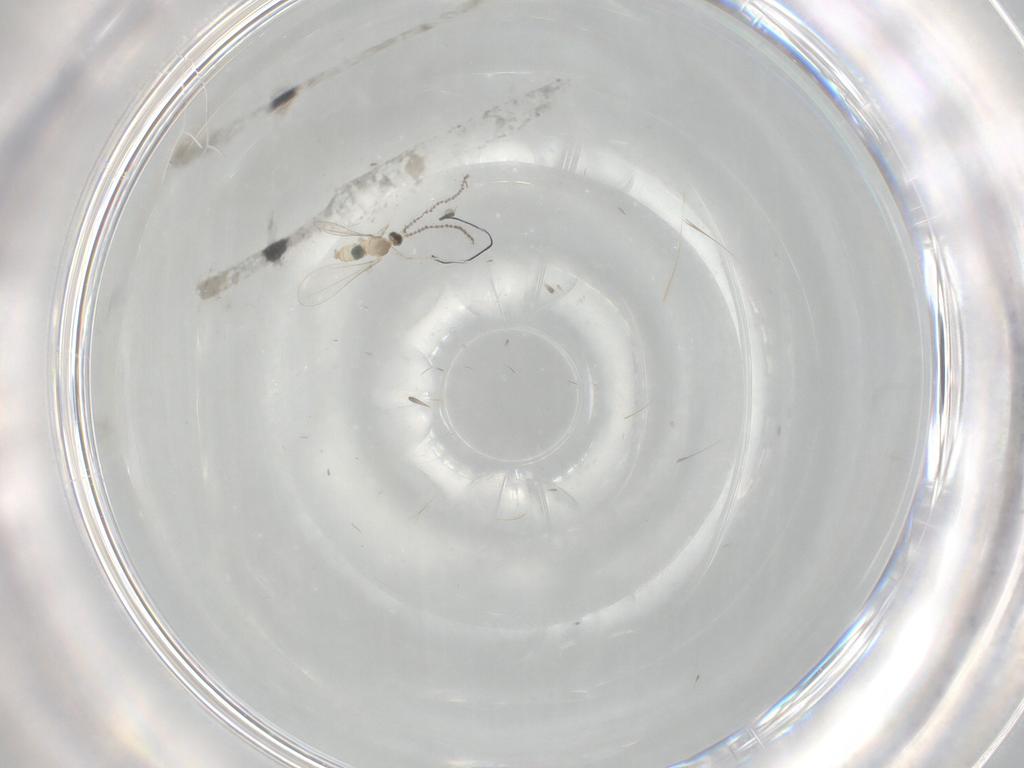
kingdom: Animalia
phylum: Arthropoda
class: Insecta
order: Diptera
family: Cecidomyiidae
